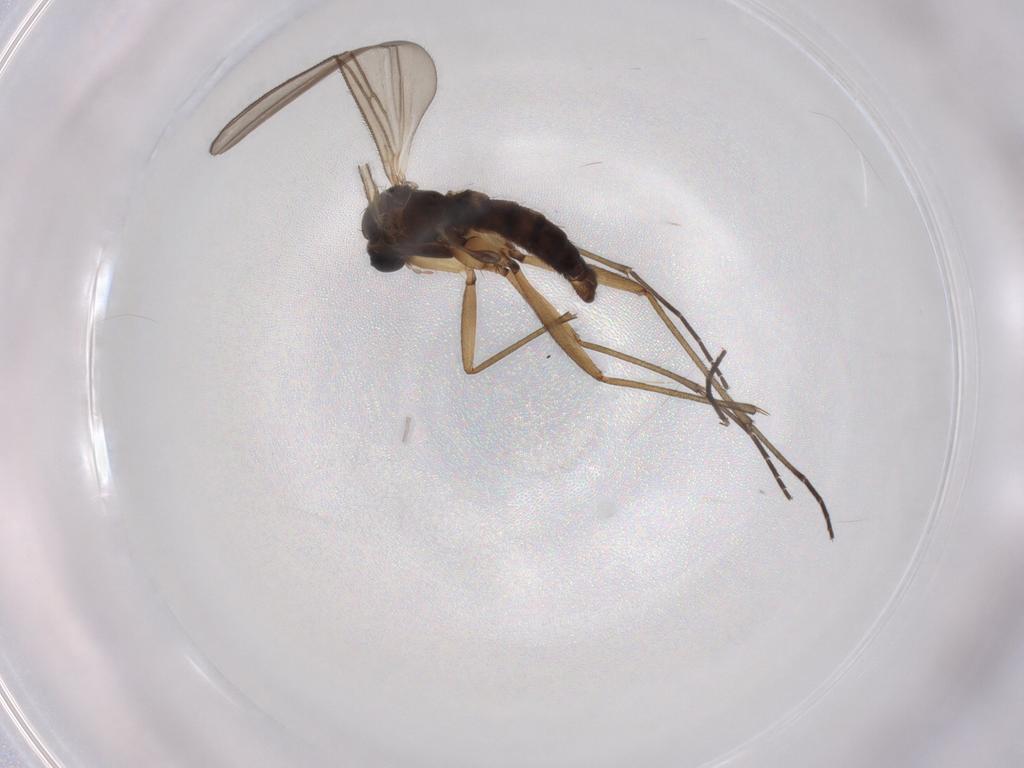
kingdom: Animalia
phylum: Arthropoda
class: Insecta
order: Diptera
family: Sciaridae
